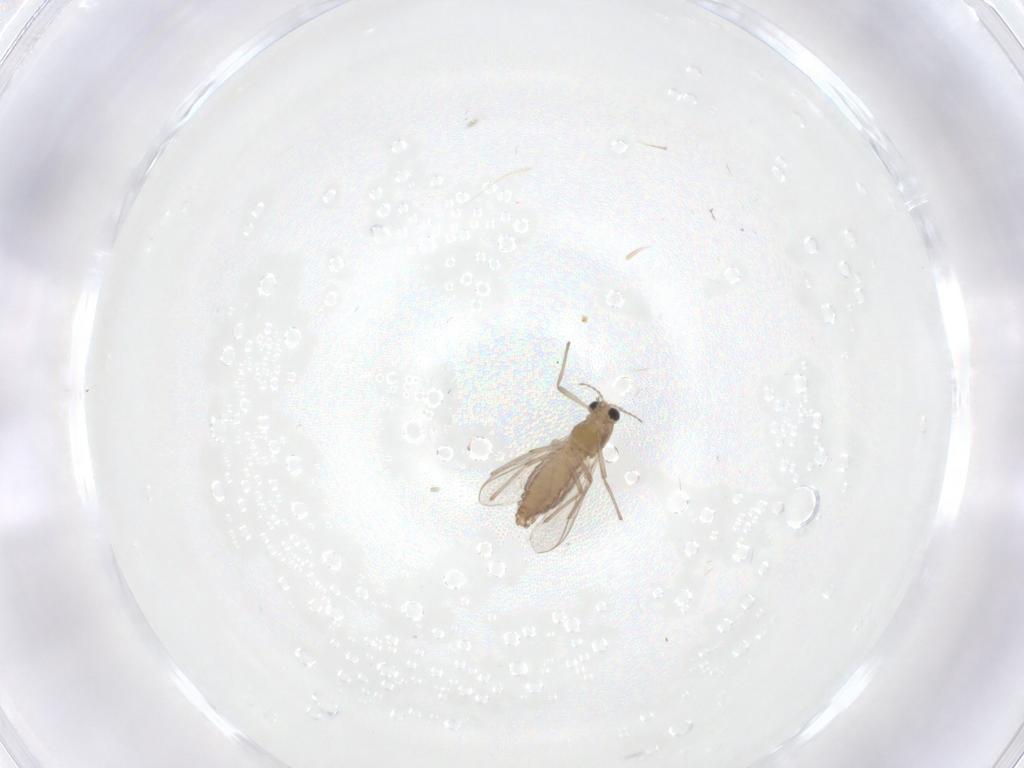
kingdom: Animalia
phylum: Arthropoda
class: Insecta
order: Diptera
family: Chironomidae
